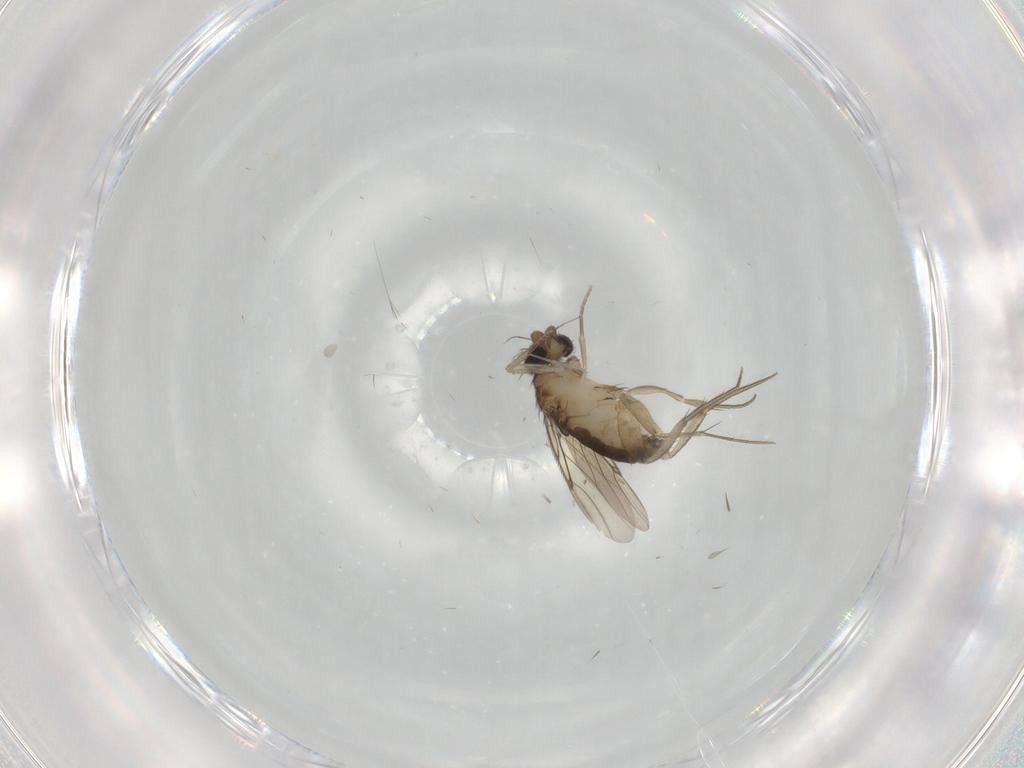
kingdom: Animalia
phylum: Arthropoda
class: Insecta
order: Diptera
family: Phoridae
